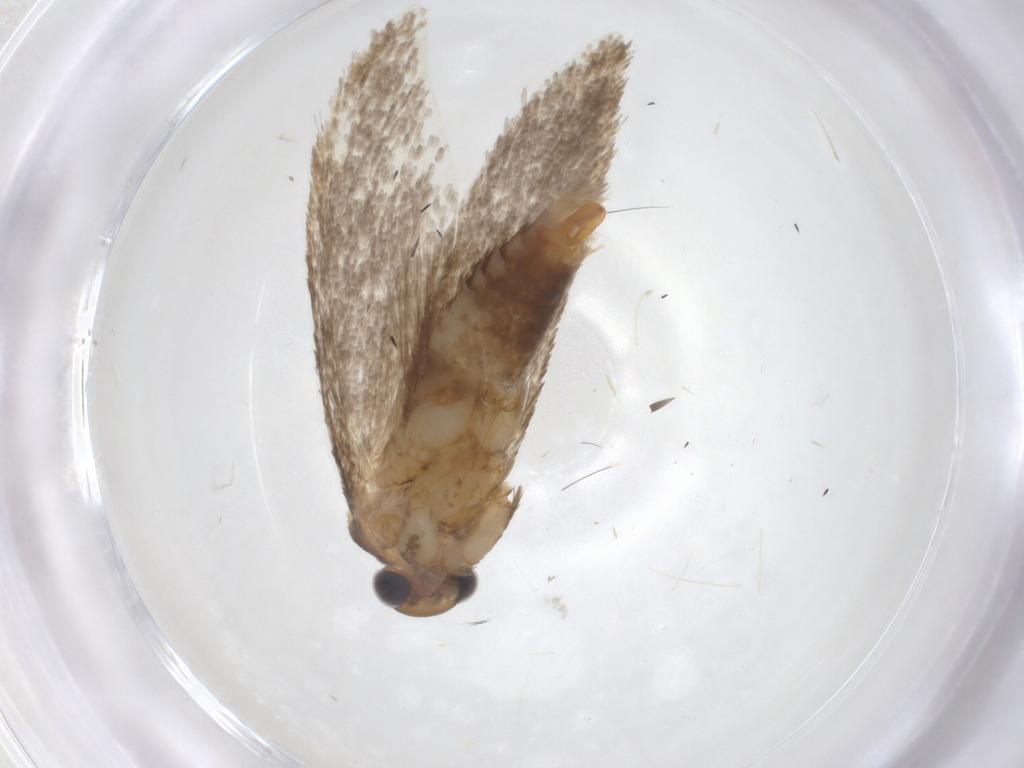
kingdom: Animalia
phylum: Arthropoda
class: Insecta
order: Lepidoptera
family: Tineidae
